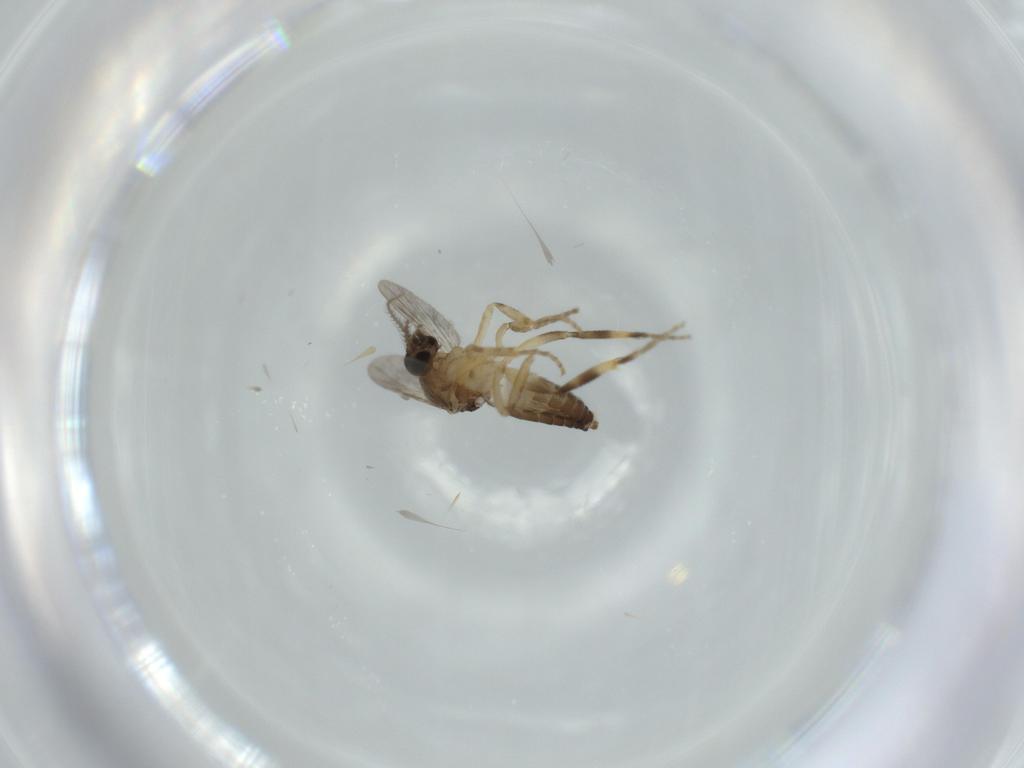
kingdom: Animalia
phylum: Arthropoda
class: Insecta
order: Diptera
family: Ceratopogonidae
